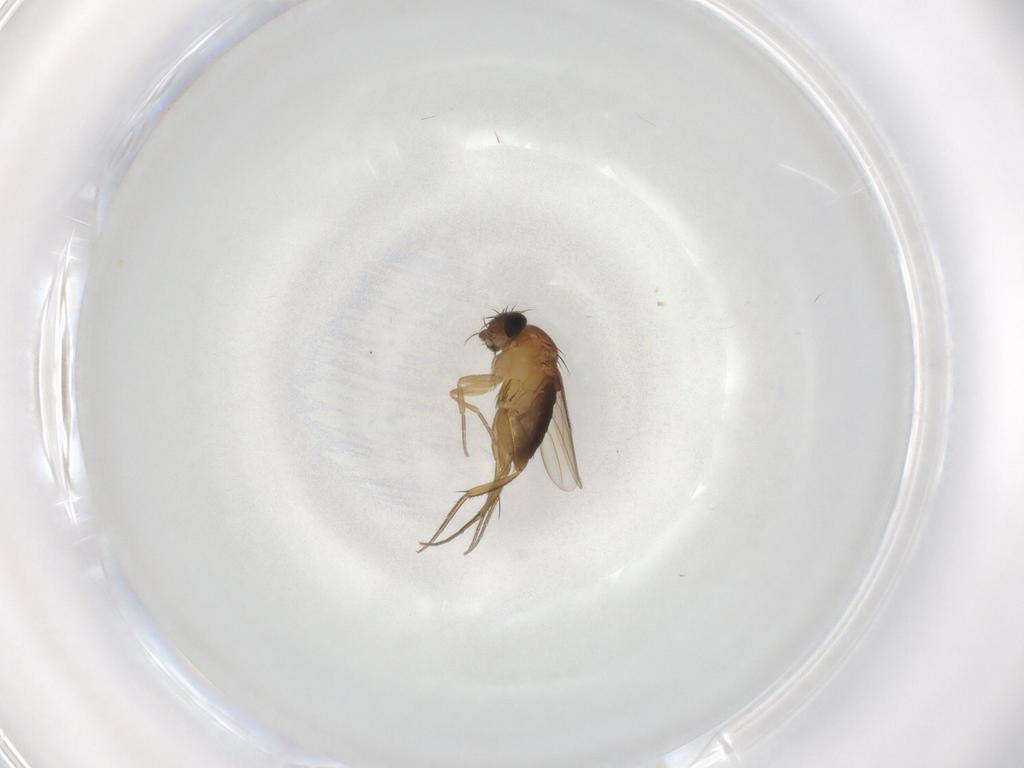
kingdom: Animalia
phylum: Arthropoda
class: Insecta
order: Diptera
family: Phoridae
